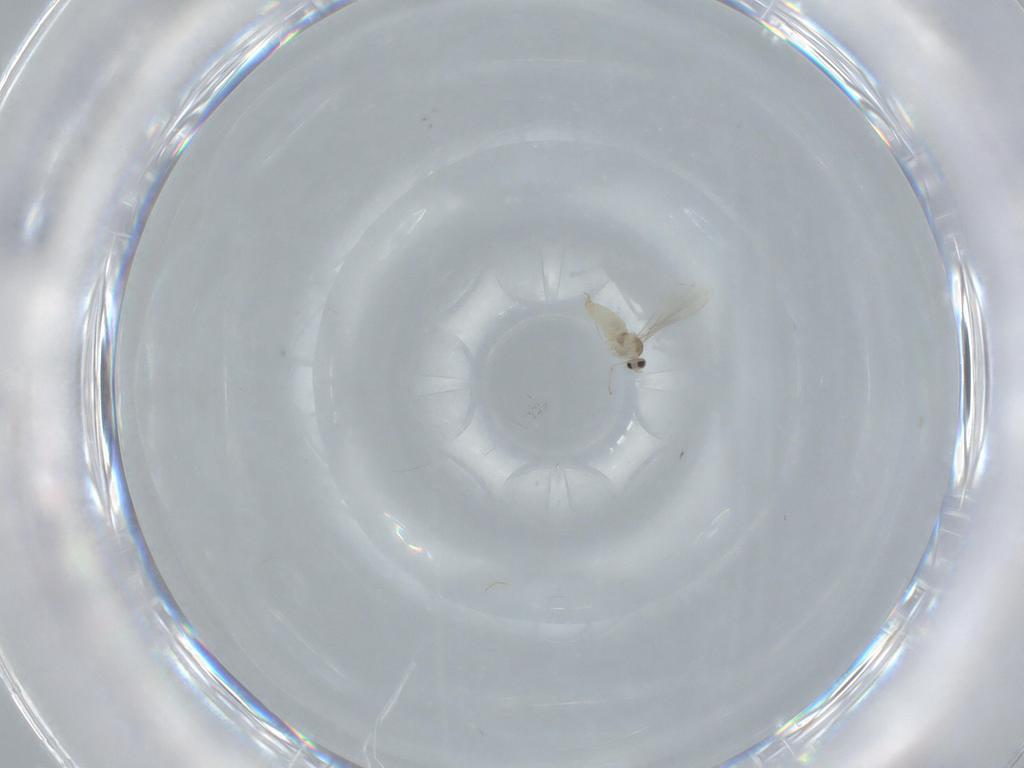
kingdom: Animalia
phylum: Arthropoda
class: Insecta
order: Diptera
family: Cecidomyiidae
